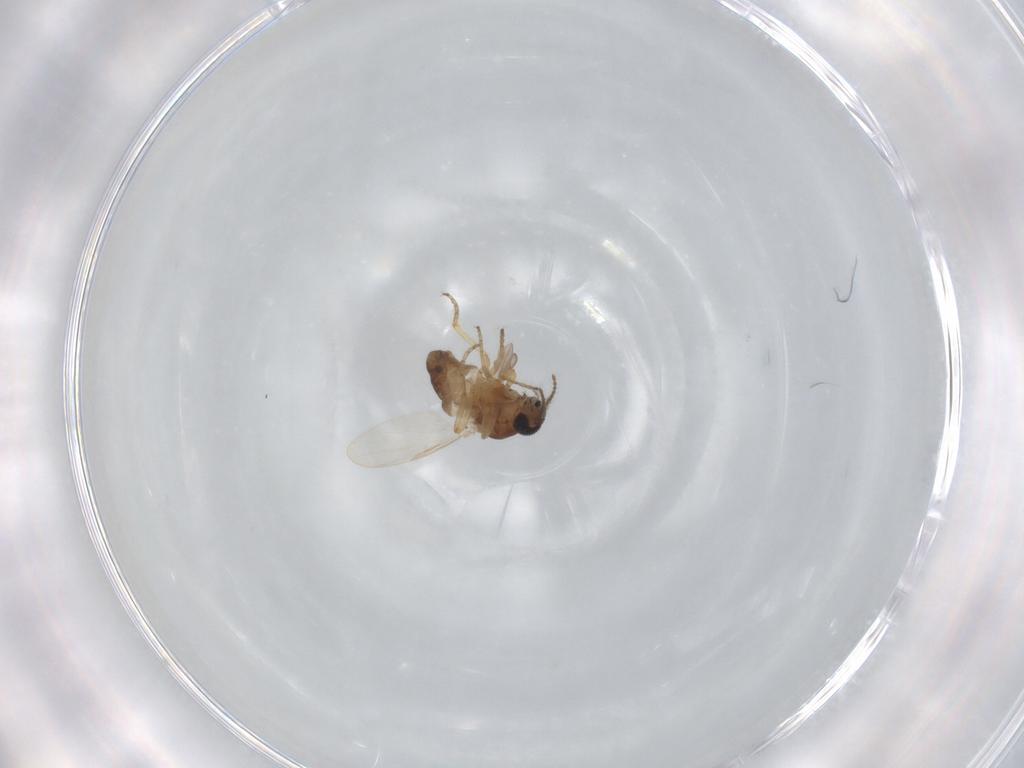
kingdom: Animalia
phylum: Arthropoda
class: Insecta
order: Diptera
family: Ceratopogonidae
